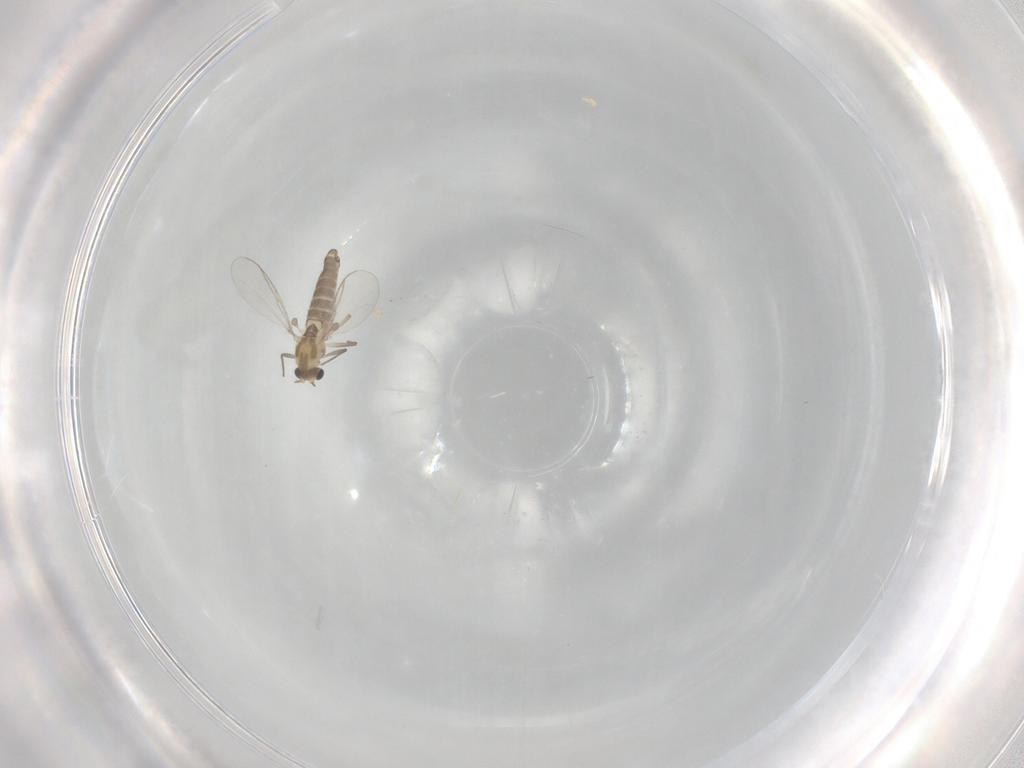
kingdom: Animalia
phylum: Arthropoda
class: Insecta
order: Diptera
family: Chironomidae
